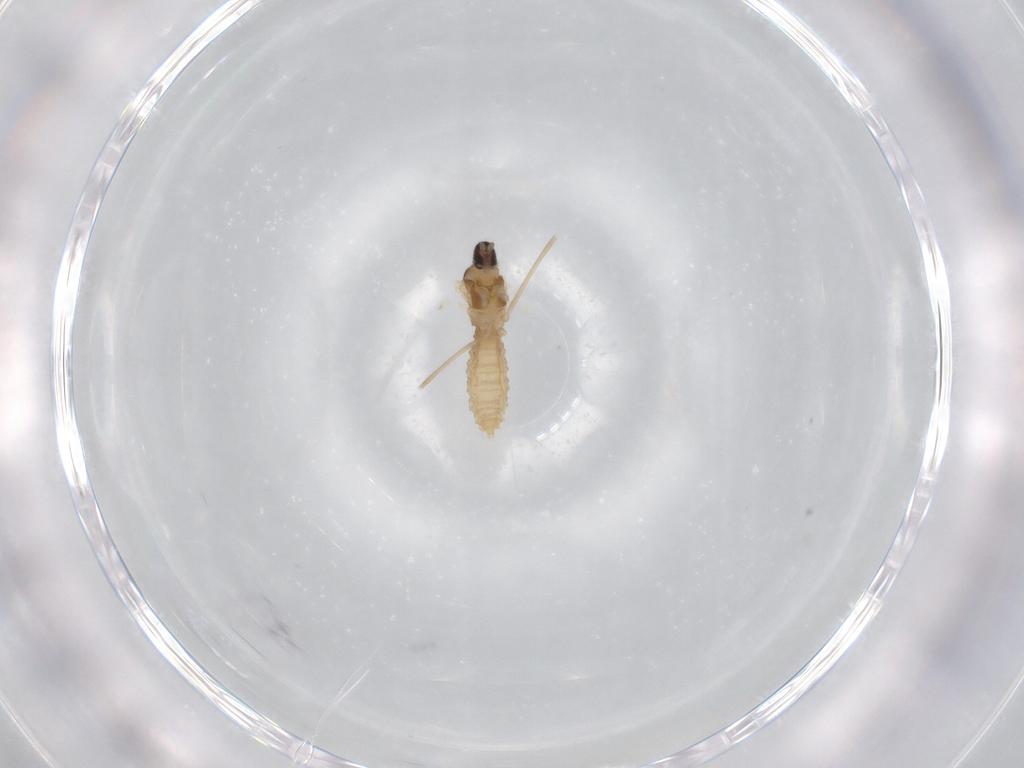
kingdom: Animalia
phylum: Arthropoda
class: Insecta
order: Diptera
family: Cecidomyiidae
